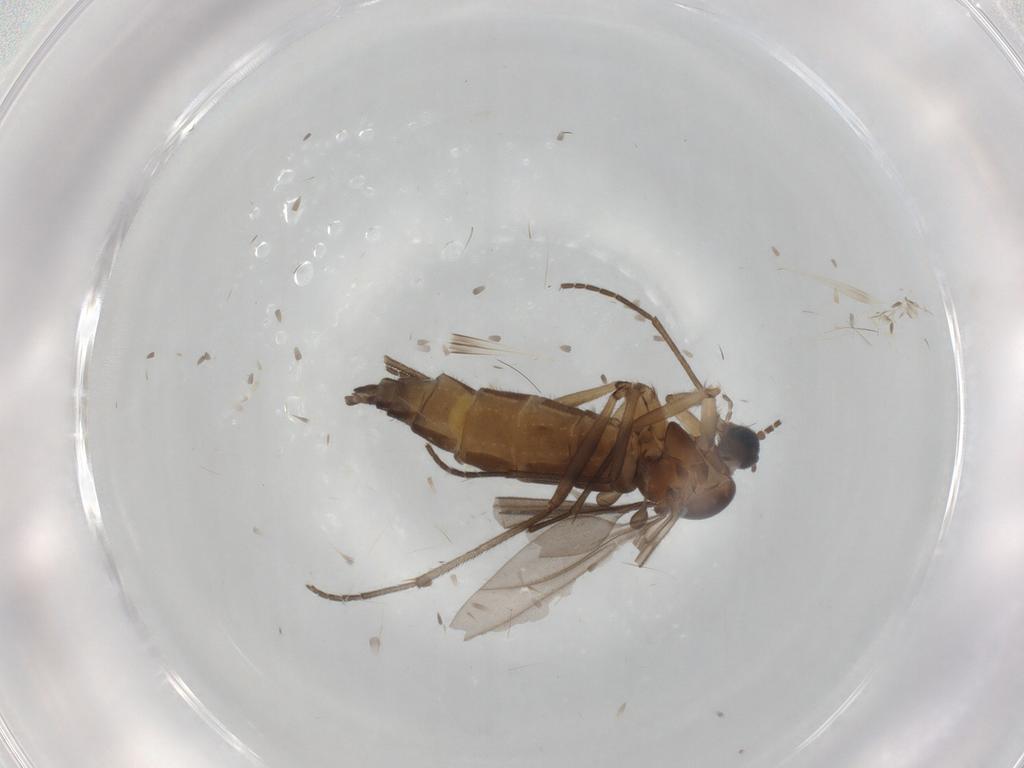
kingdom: Animalia
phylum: Arthropoda
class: Insecta
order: Diptera
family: Sciaridae
